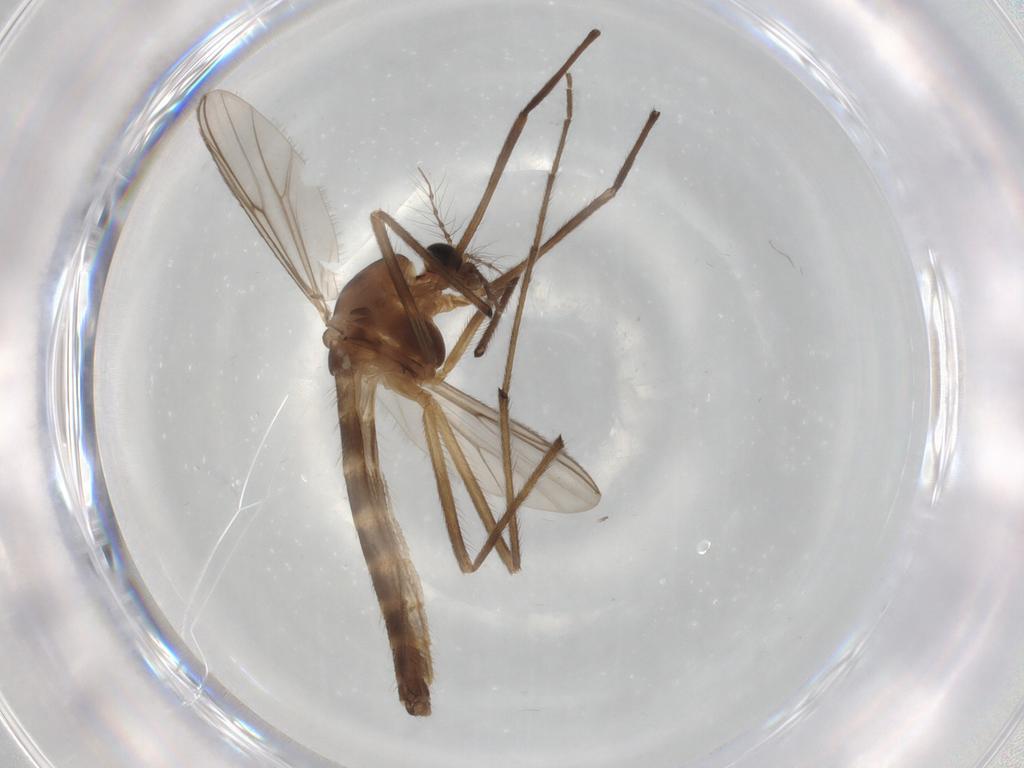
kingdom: Animalia
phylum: Arthropoda
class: Insecta
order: Diptera
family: Chironomidae
